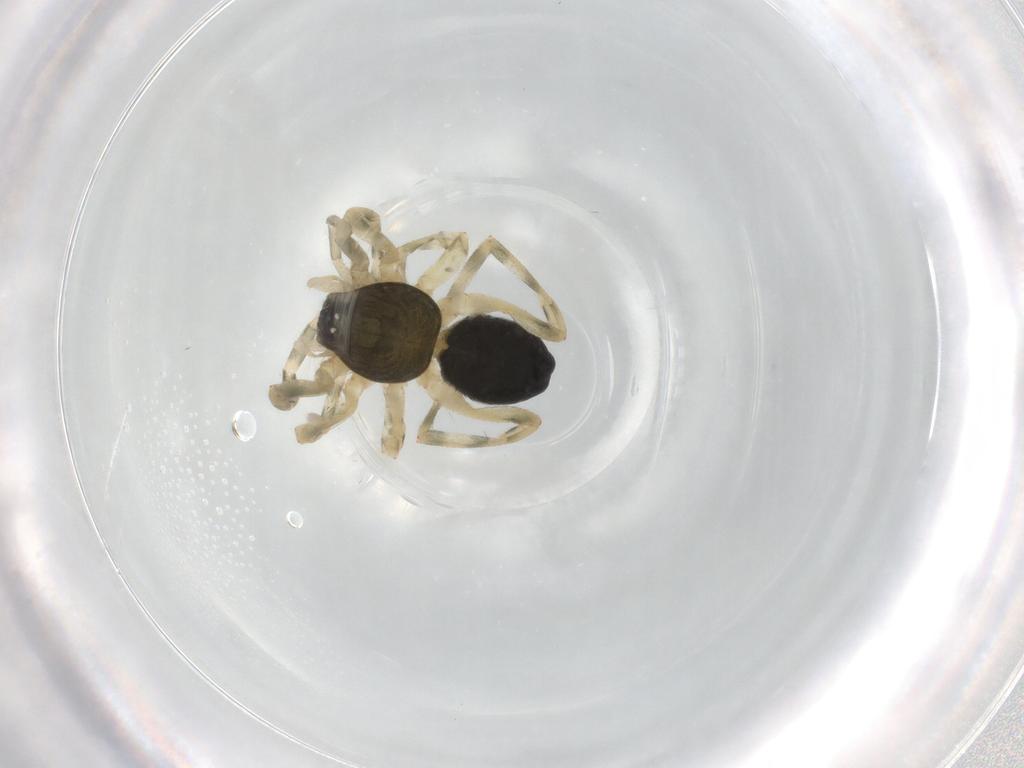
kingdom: Animalia
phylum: Arthropoda
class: Arachnida
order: Araneae
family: Trachelidae
